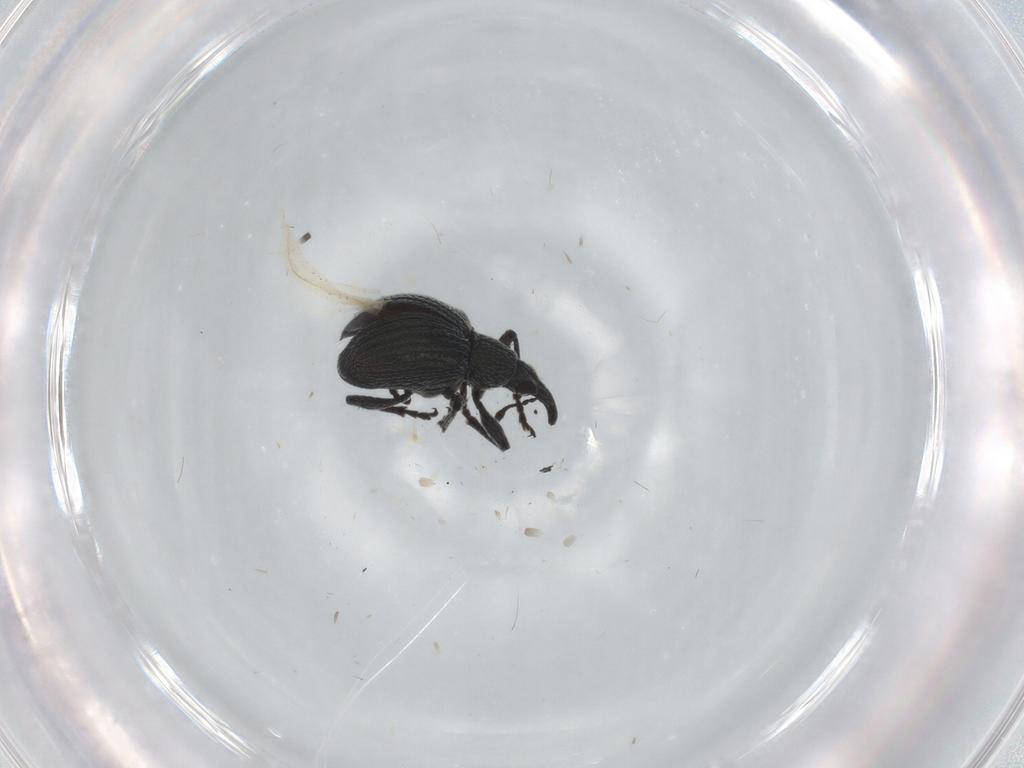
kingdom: Animalia
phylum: Arthropoda
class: Insecta
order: Coleoptera
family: Brentidae
